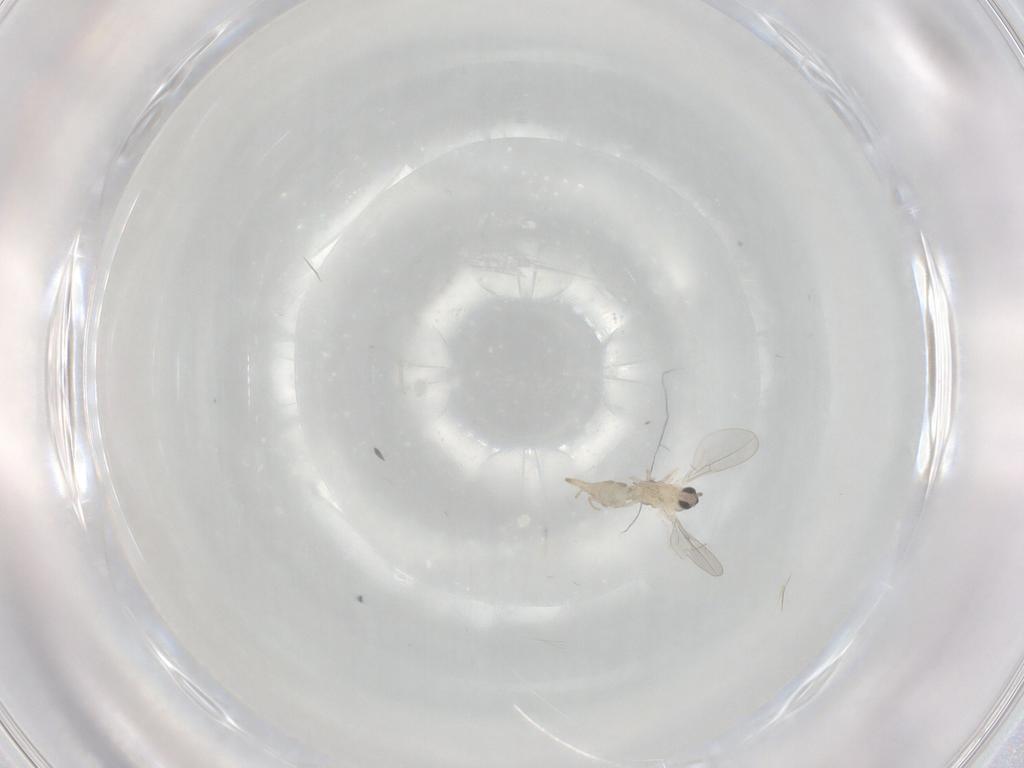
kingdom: Animalia
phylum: Arthropoda
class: Insecta
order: Diptera
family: Cecidomyiidae
